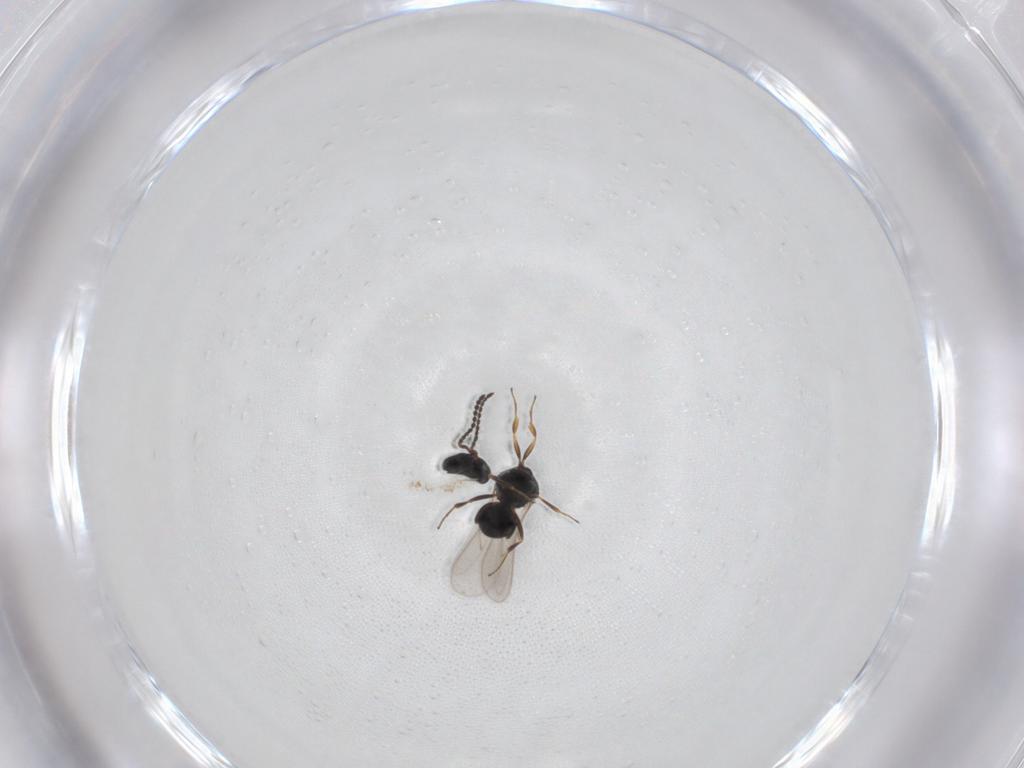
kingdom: Animalia
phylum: Arthropoda
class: Insecta
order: Hymenoptera
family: Scelionidae
